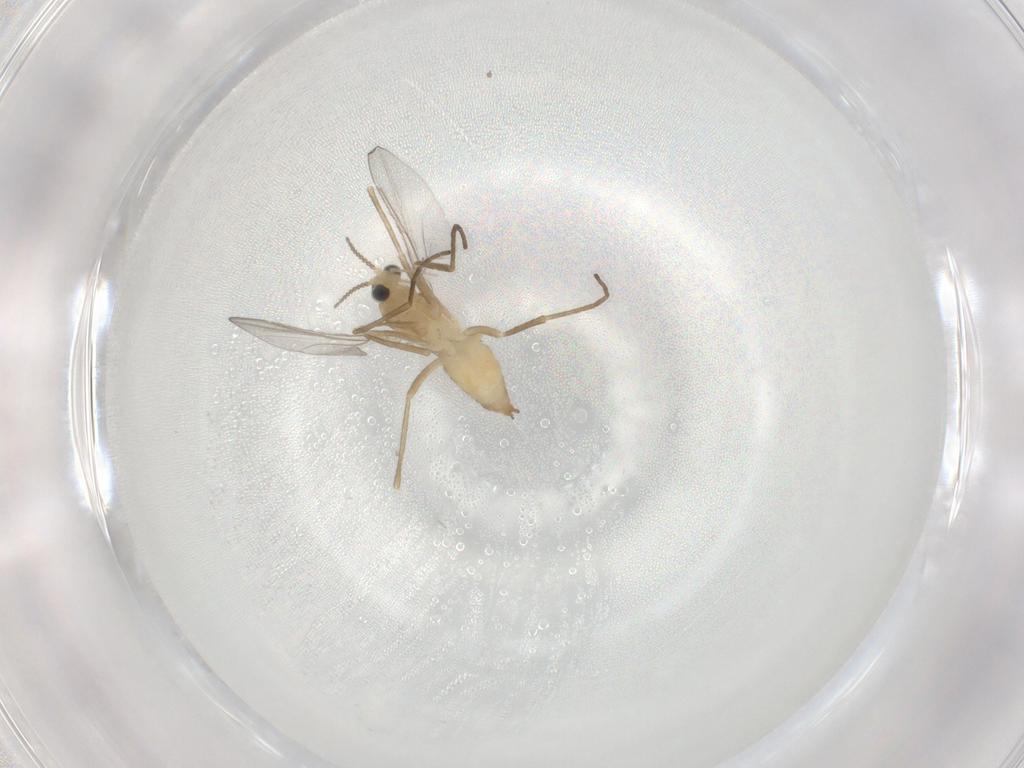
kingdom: Animalia
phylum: Arthropoda
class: Insecta
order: Diptera
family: Cecidomyiidae
